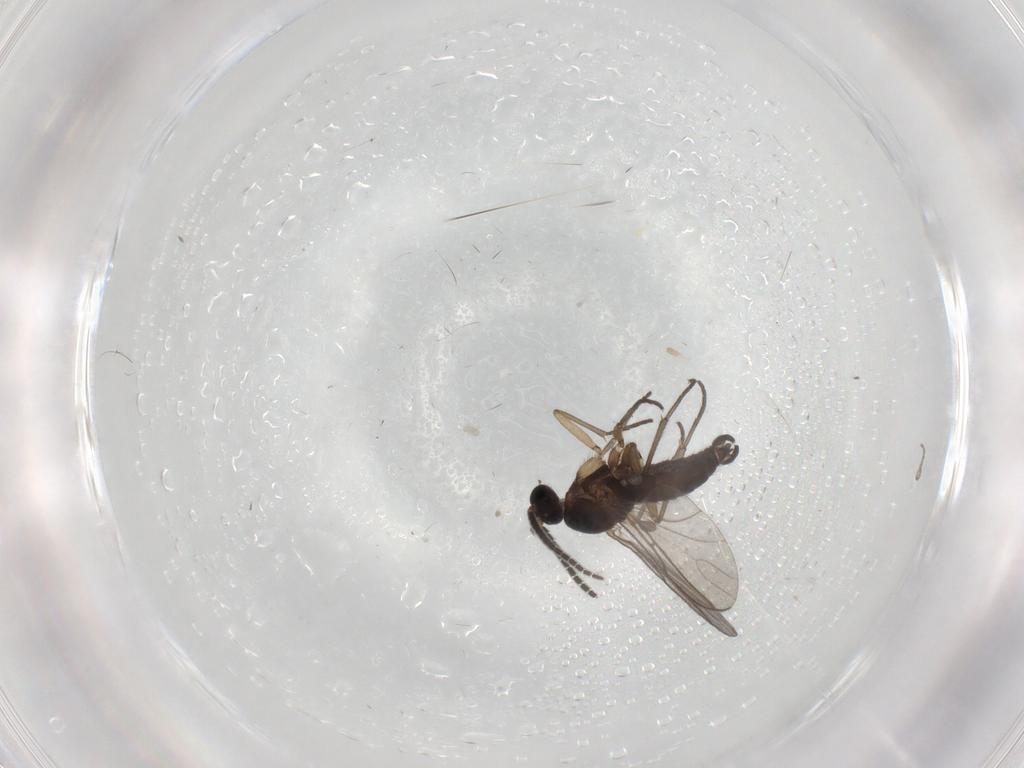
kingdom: Animalia
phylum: Arthropoda
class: Insecta
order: Diptera
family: Sciaridae
